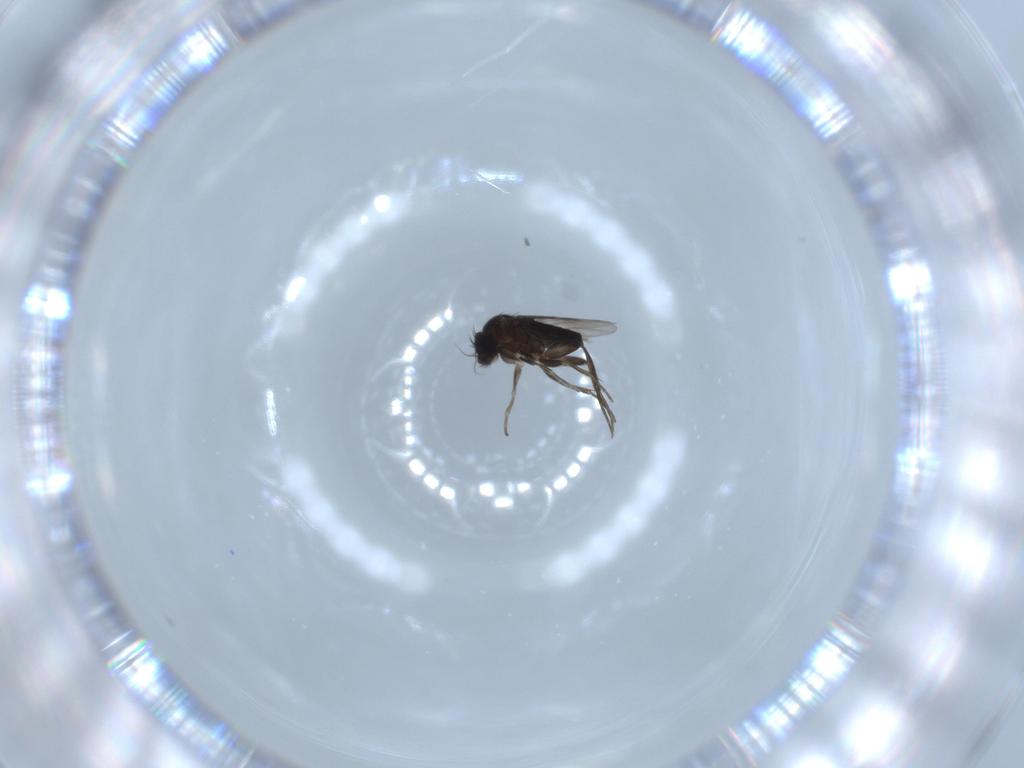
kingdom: Animalia
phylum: Arthropoda
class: Insecta
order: Diptera
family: Phoridae
